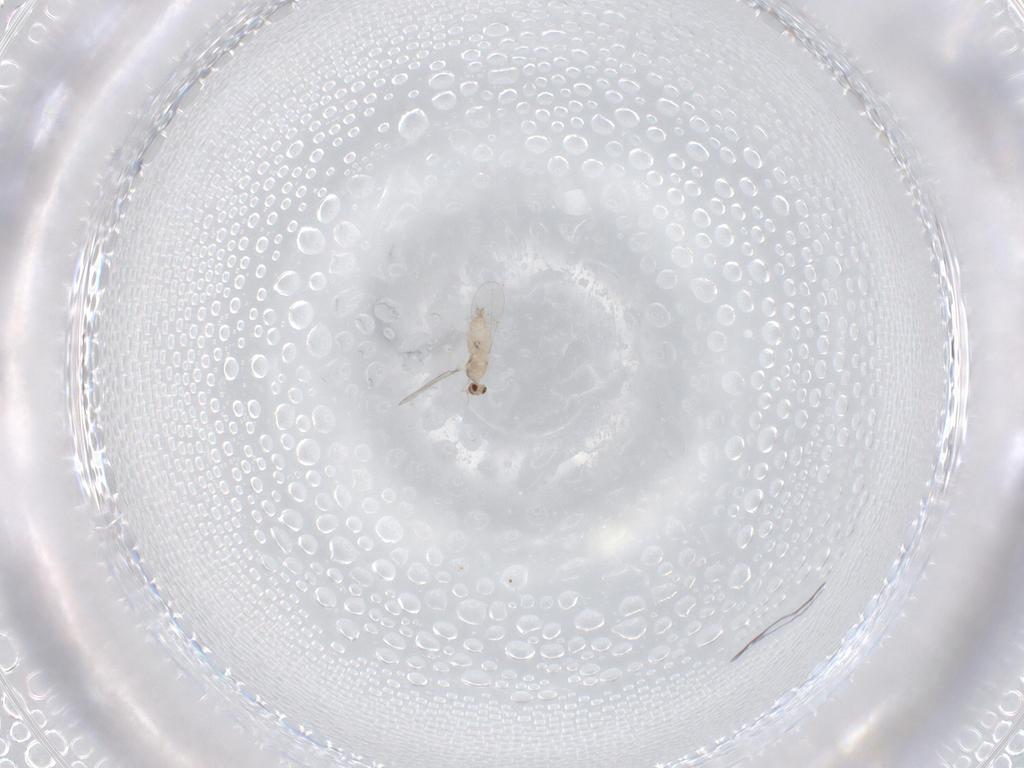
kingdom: Animalia
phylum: Arthropoda
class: Insecta
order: Diptera
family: Cecidomyiidae
